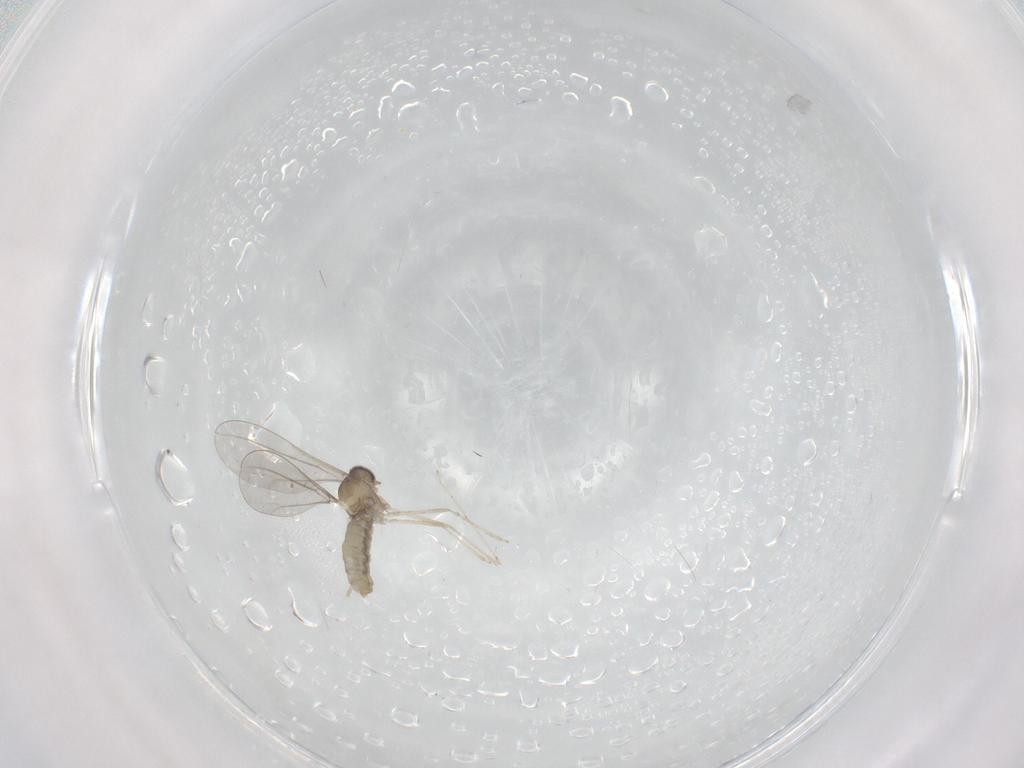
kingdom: Animalia
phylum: Arthropoda
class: Insecta
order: Diptera
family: Cecidomyiidae
